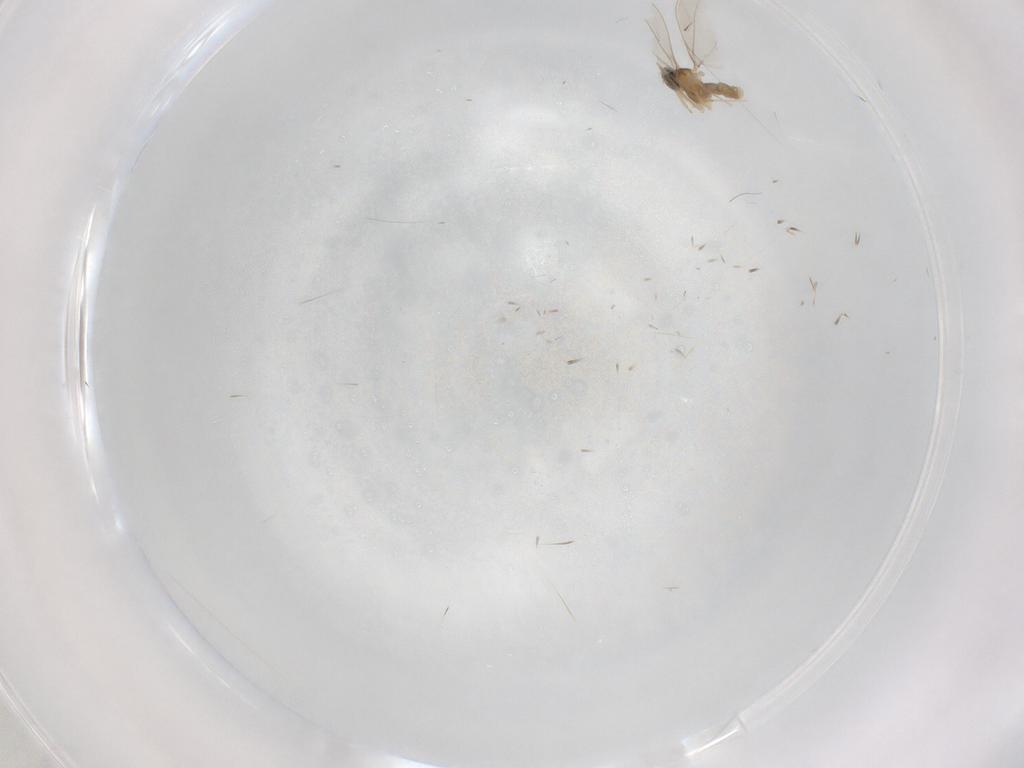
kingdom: Animalia
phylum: Arthropoda
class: Insecta
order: Diptera
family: Cecidomyiidae
